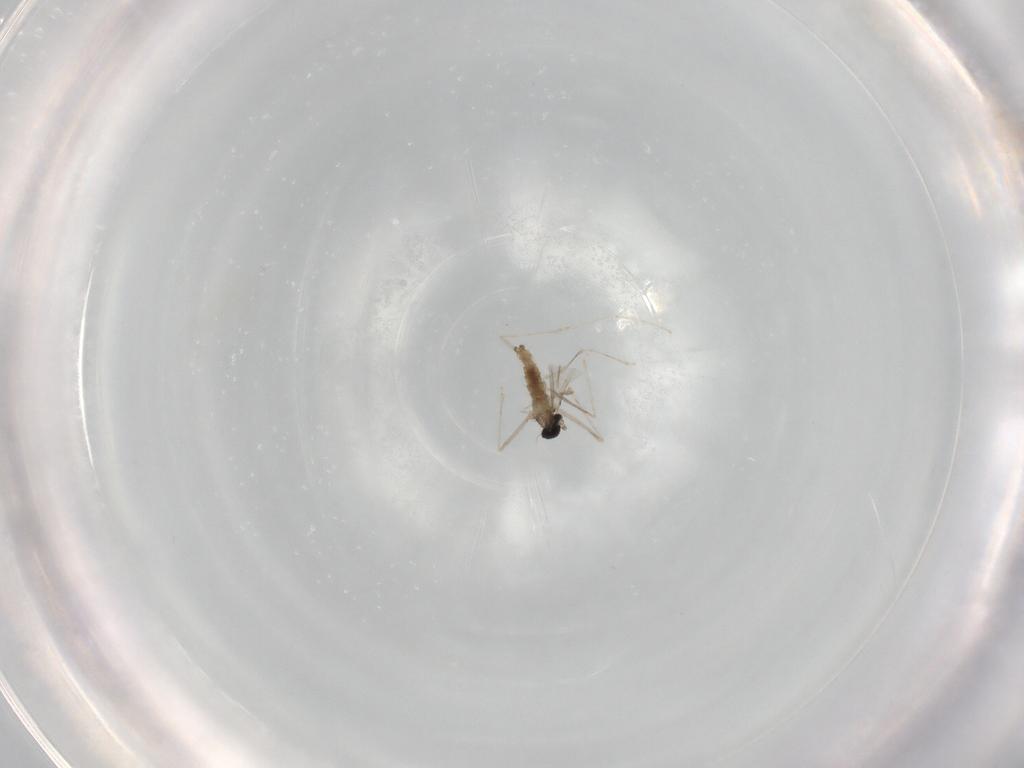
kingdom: Animalia
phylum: Arthropoda
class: Insecta
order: Diptera
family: Cecidomyiidae
